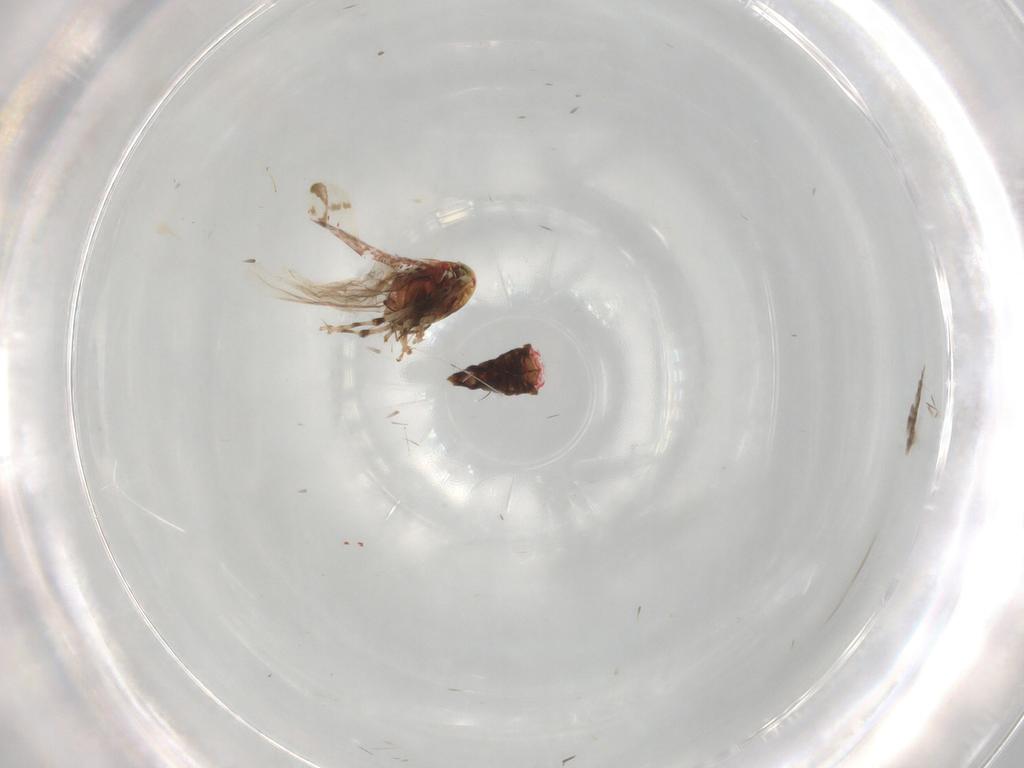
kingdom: Animalia
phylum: Arthropoda
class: Insecta
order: Hemiptera
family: Cicadellidae
